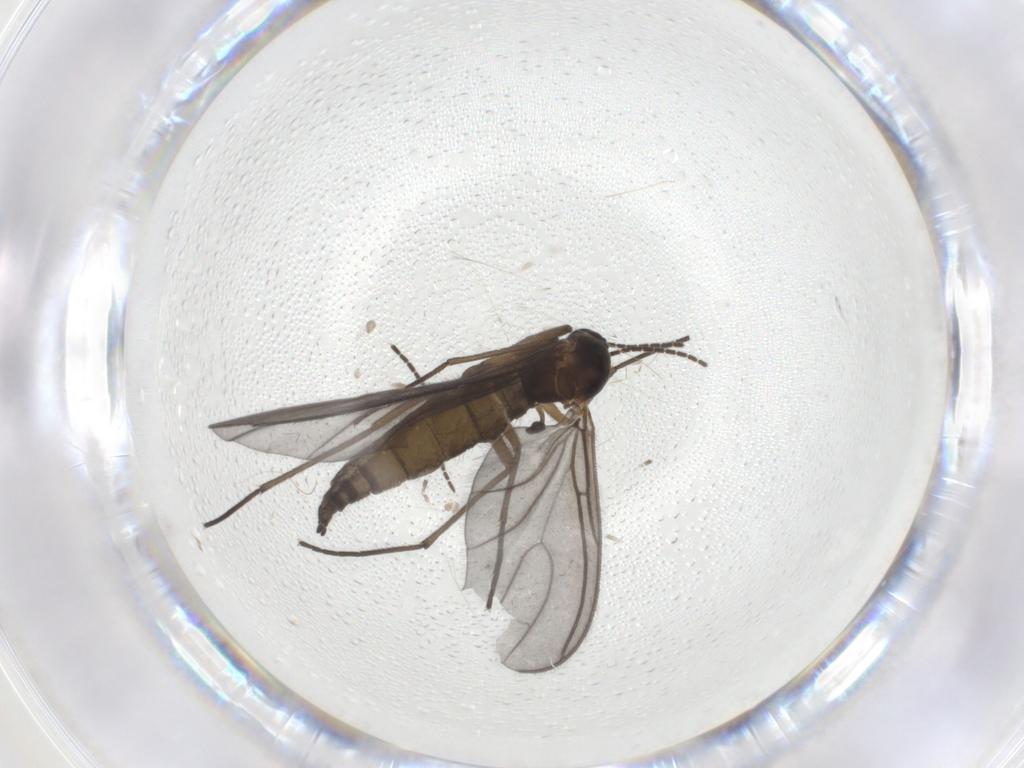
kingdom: Animalia
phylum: Arthropoda
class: Insecta
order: Diptera
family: Sciaridae
